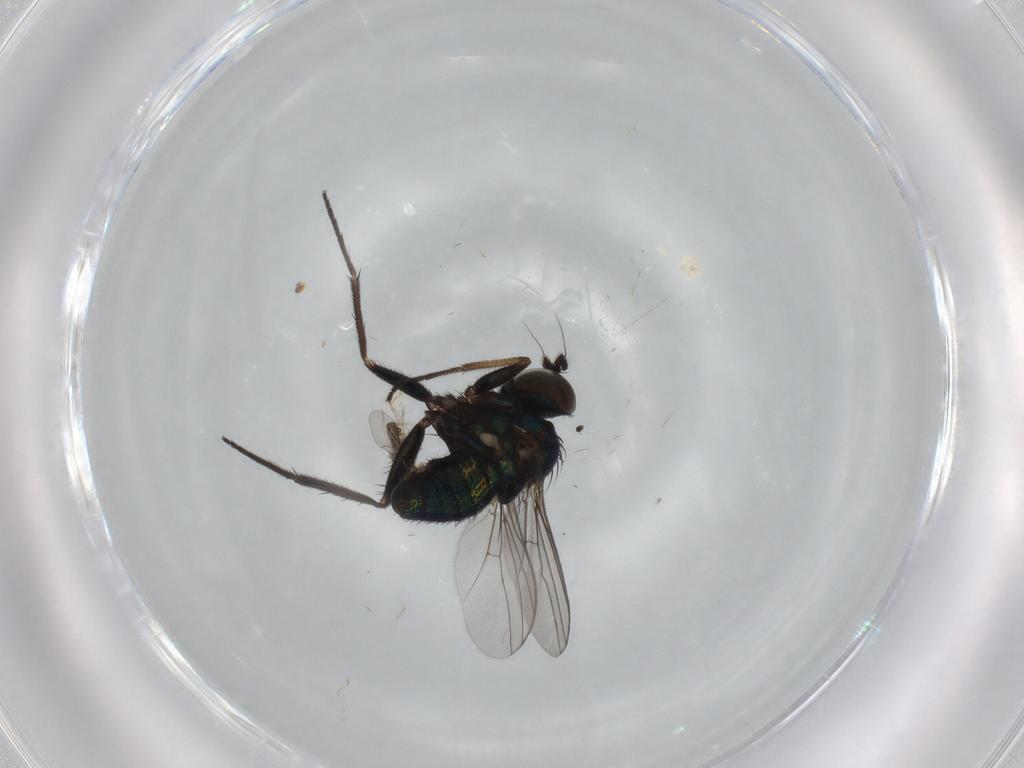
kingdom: Animalia
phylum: Arthropoda
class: Insecta
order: Diptera
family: Cecidomyiidae
